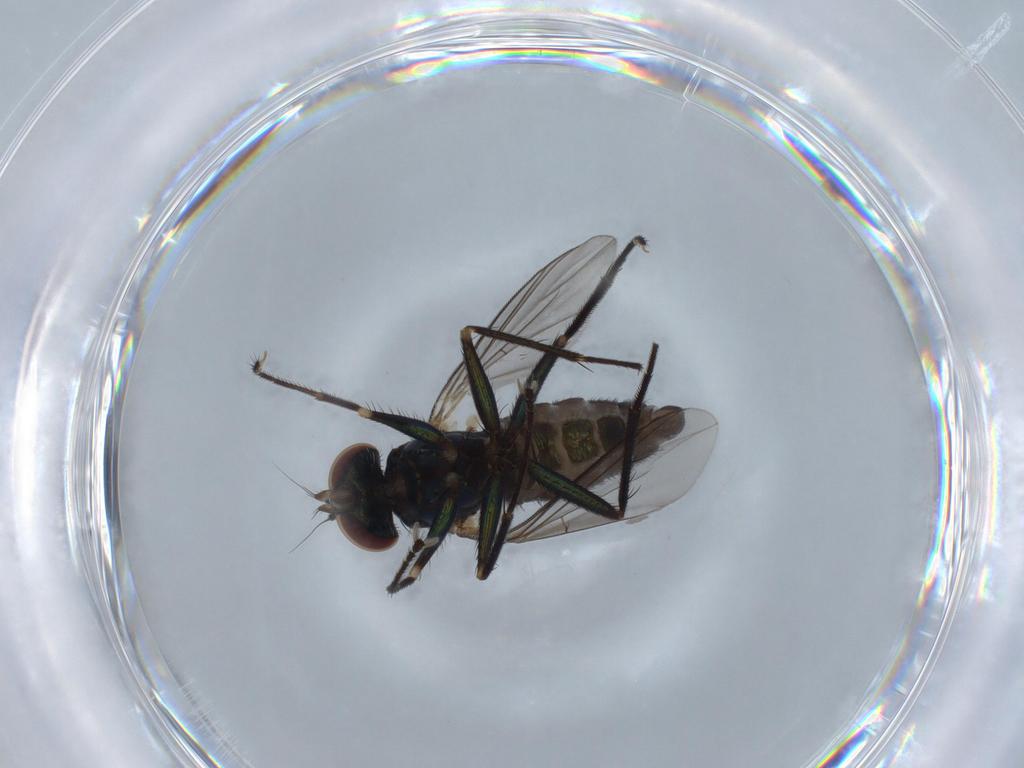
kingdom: Animalia
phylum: Arthropoda
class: Insecta
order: Diptera
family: Dolichopodidae
